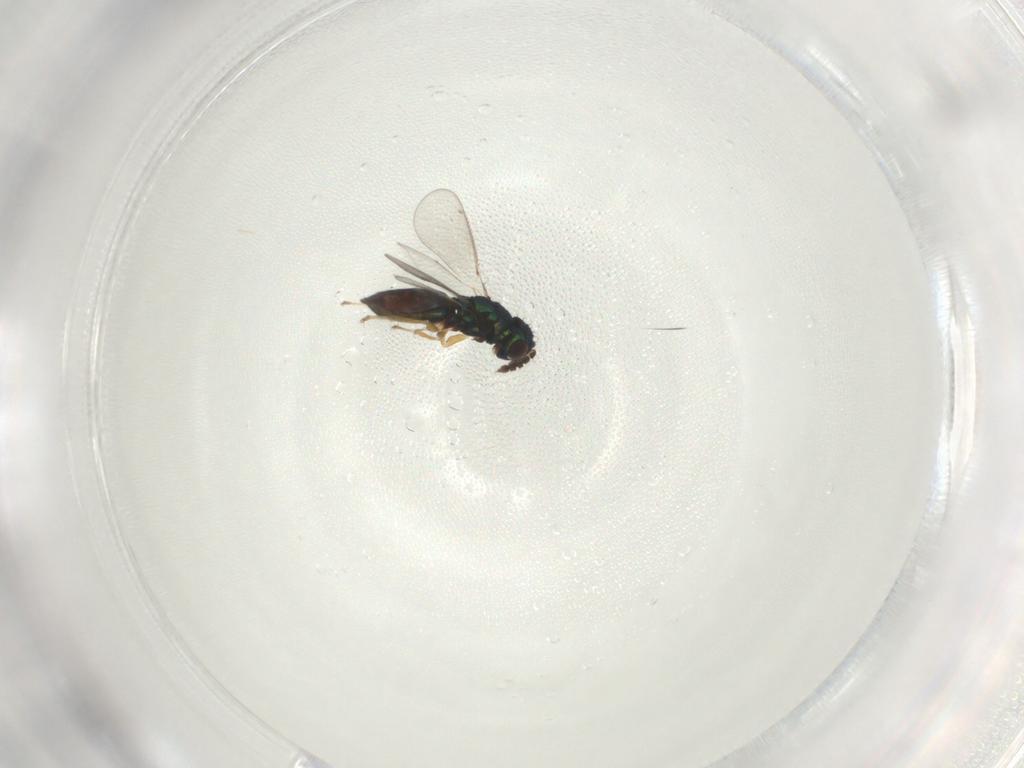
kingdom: Animalia
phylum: Arthropoda
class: Insecta
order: Hymenoptera
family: Eulophidae
